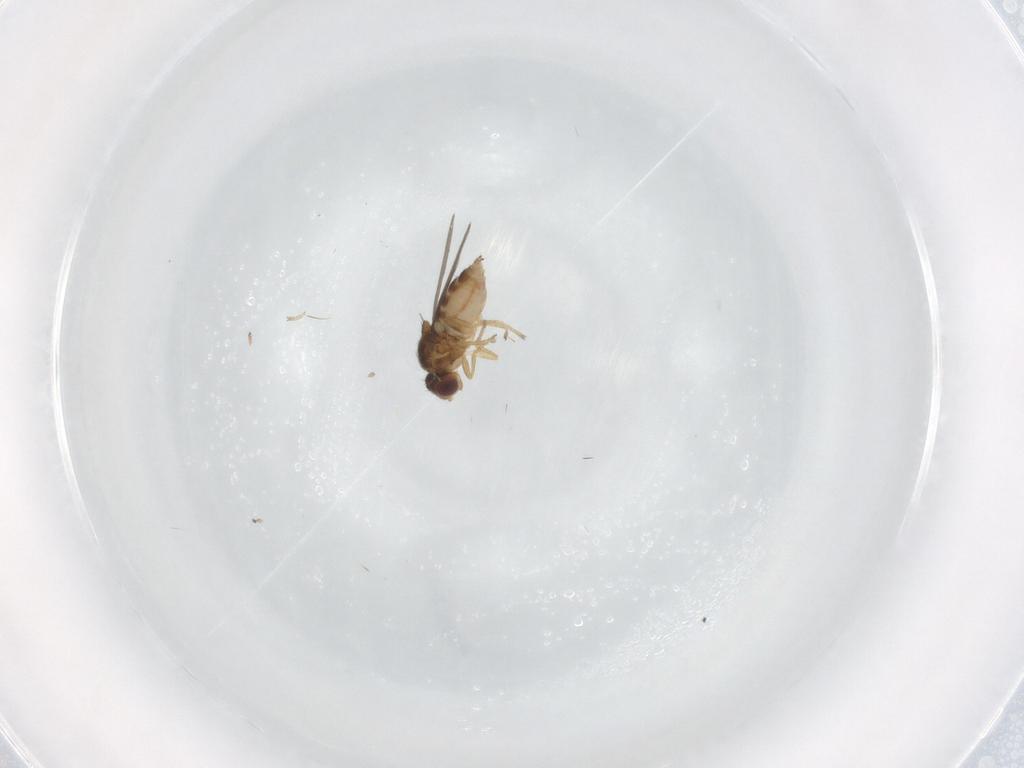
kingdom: Animalia
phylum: Arthropoda
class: Insecta
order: Diptera
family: Chloropidae
